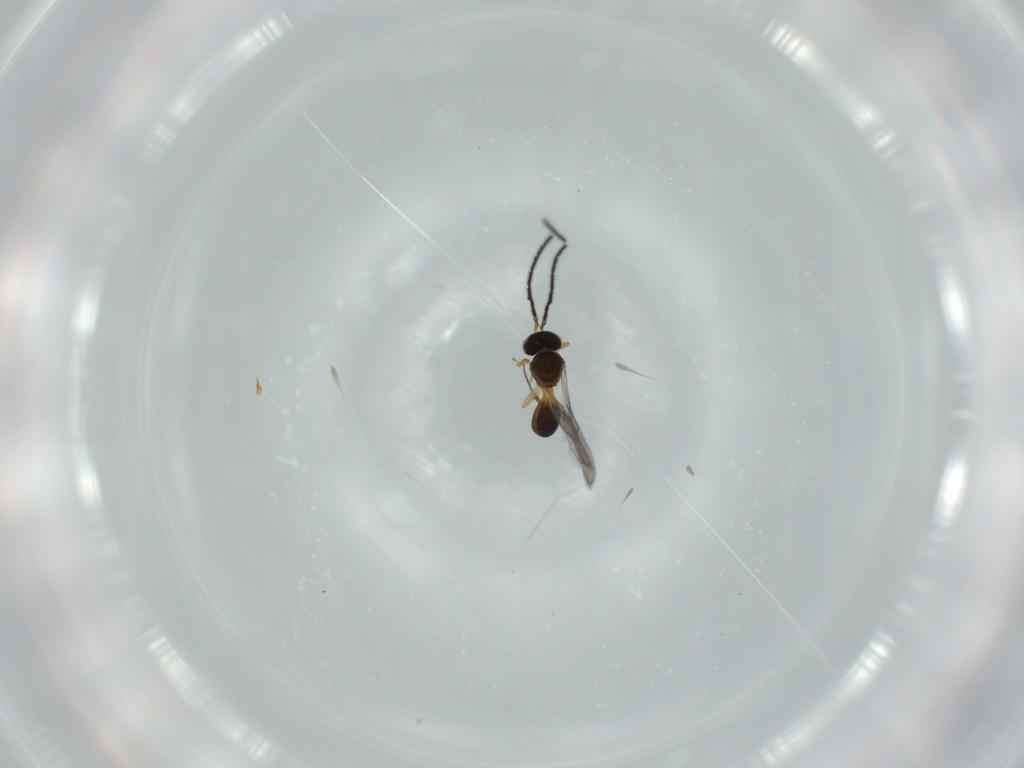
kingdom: Animalia
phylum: Arthropoda
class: Insecta
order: Hymenoptera
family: Scelionidae
